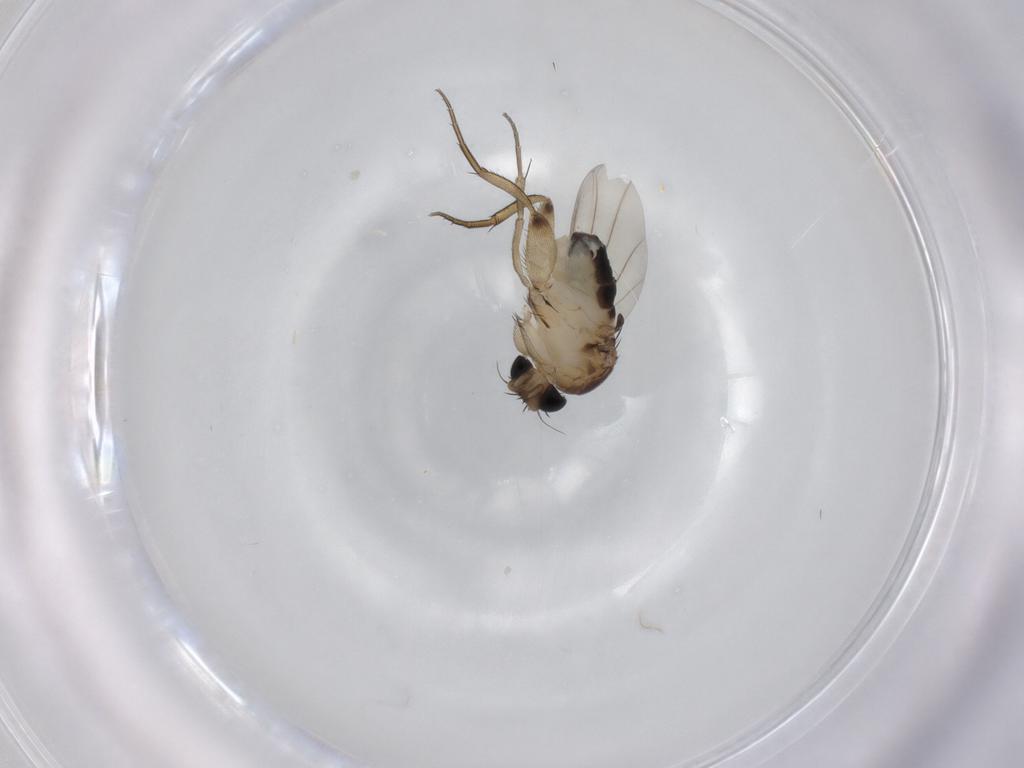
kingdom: Animalia
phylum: Arthropoda
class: Insecta
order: Diptera
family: Phoridae
